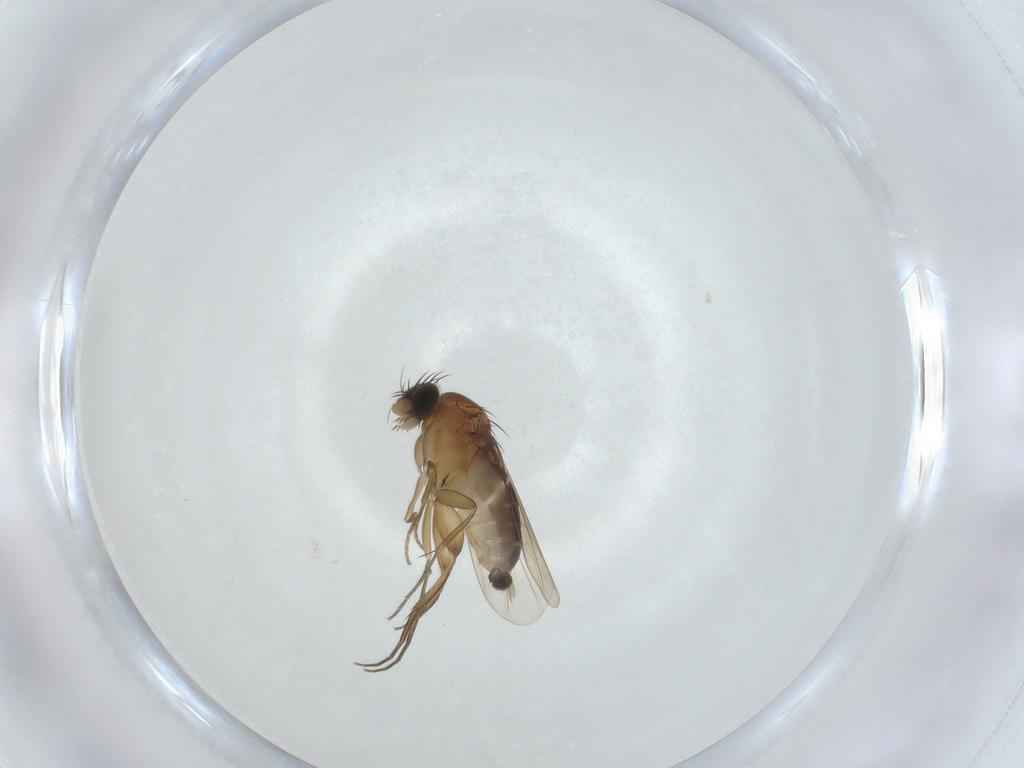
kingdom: Animalia
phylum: Arthropoda
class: Insecta
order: Diptera
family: Phoridae
